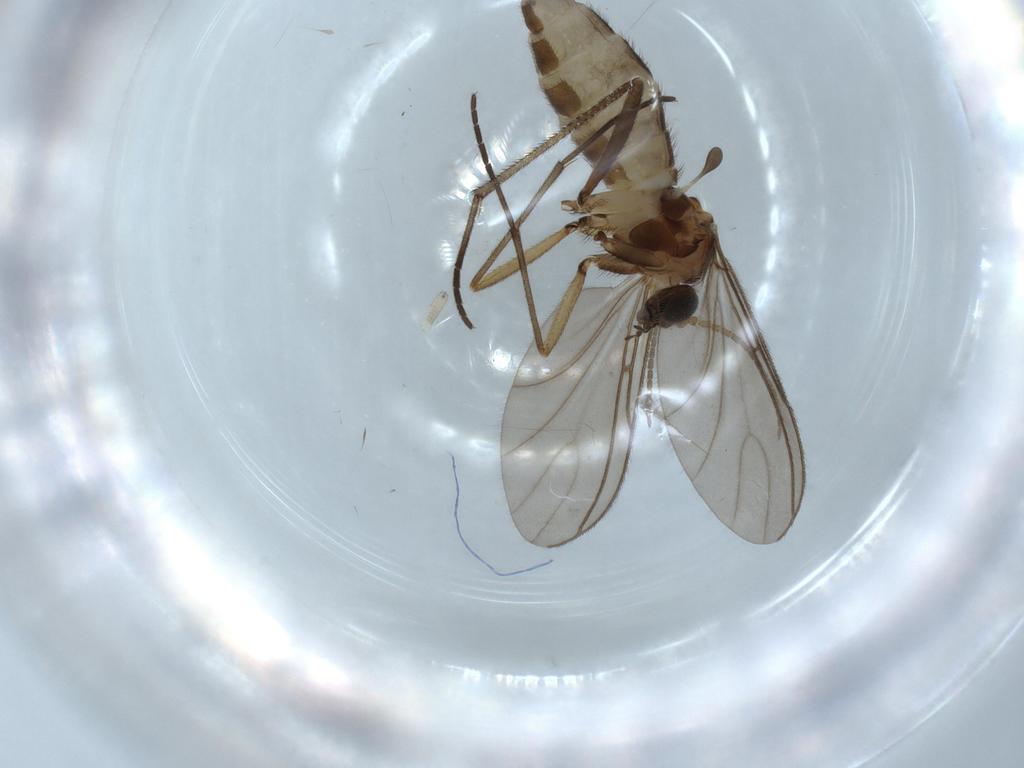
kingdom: Animalia
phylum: Arthropoda
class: Insecta
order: Diptera
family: Sciaridae
